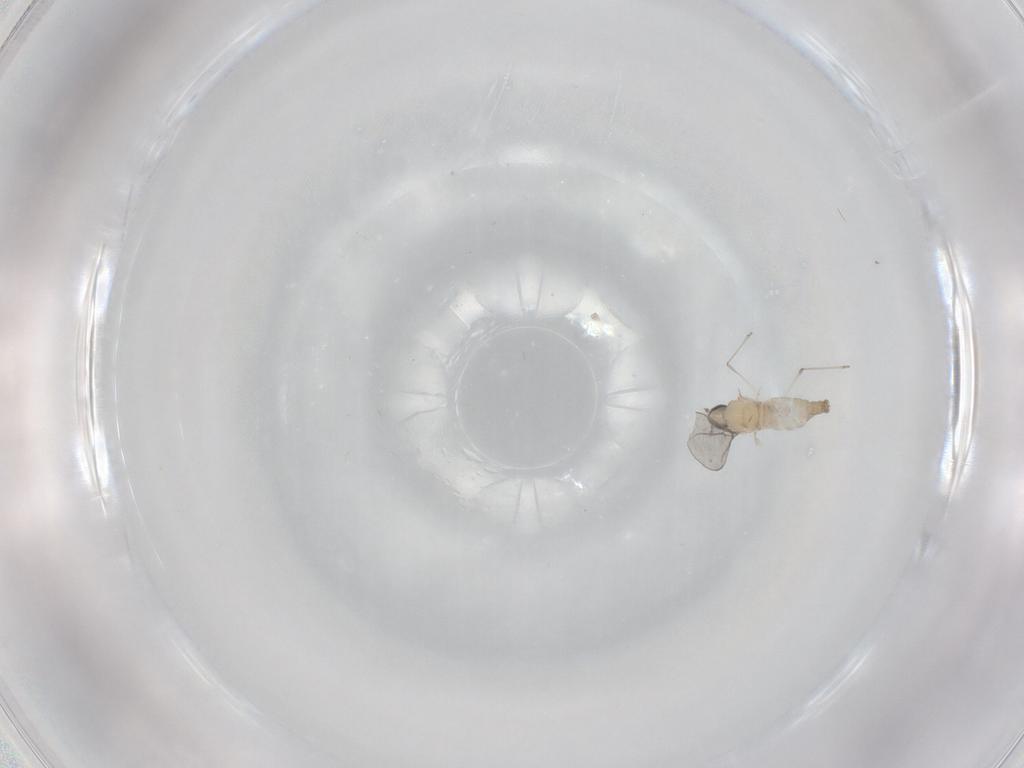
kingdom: Animalia
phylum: Arthropoda
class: Insecta
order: Diptera
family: Cecidomyiidae
